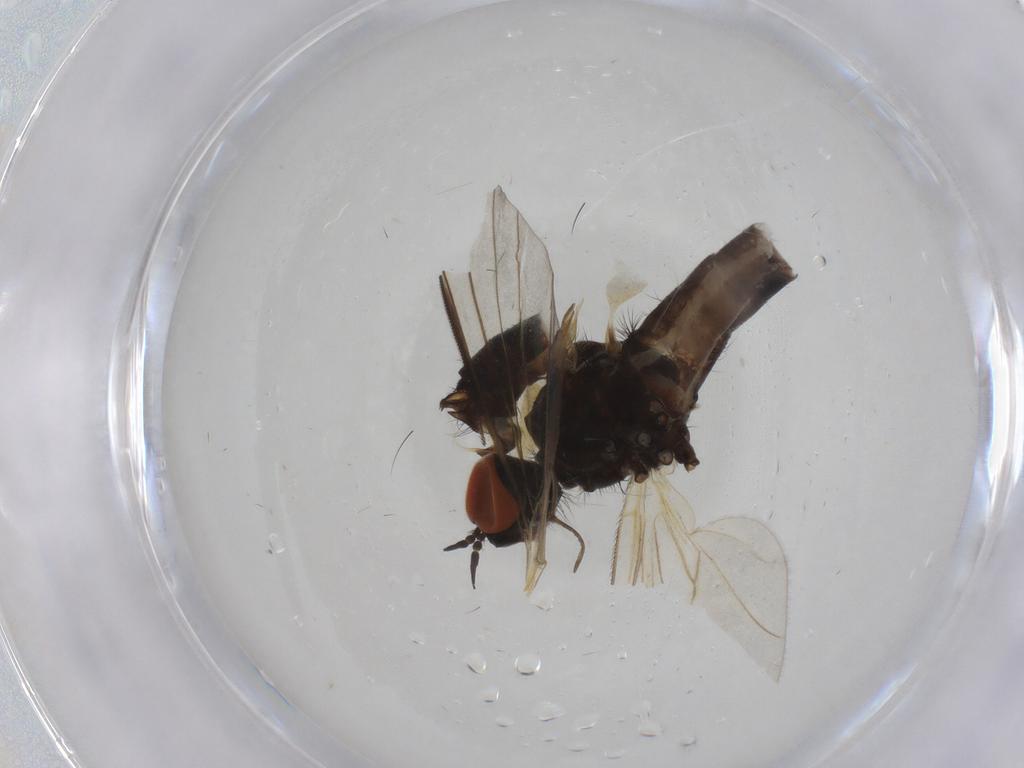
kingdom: Animalia
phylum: Arthropoda
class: Insecta
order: Diptera
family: Empididae
